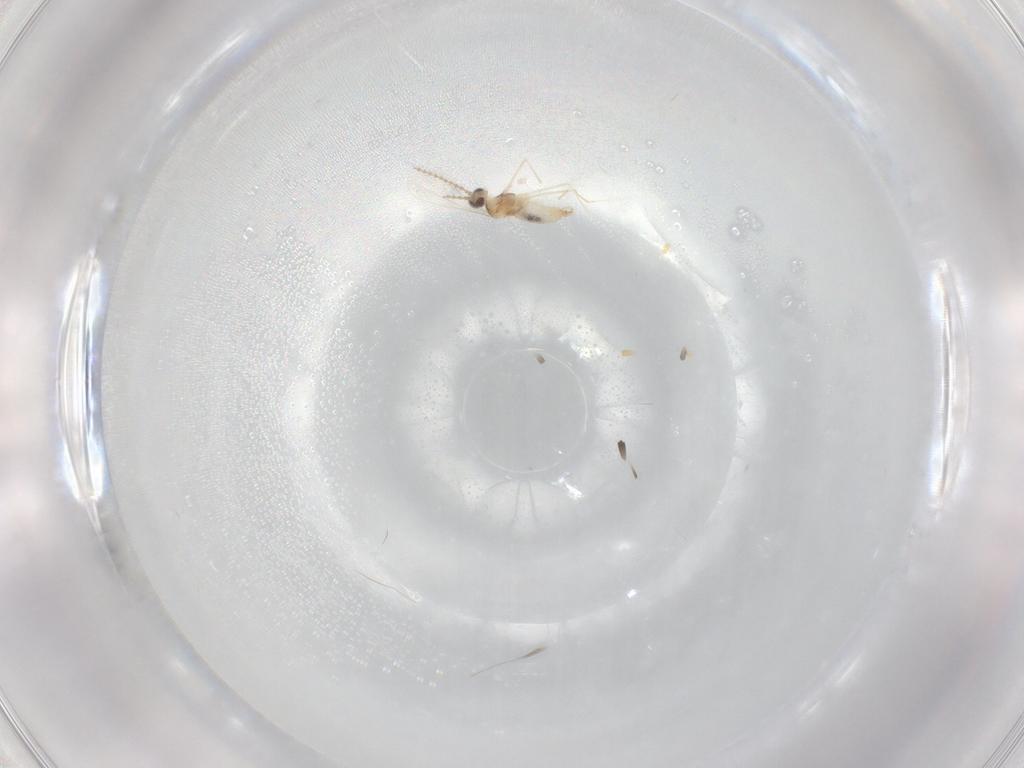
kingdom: Animalia
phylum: Arthropoda
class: Insecta
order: Diptera
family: Cecidomyiidae
